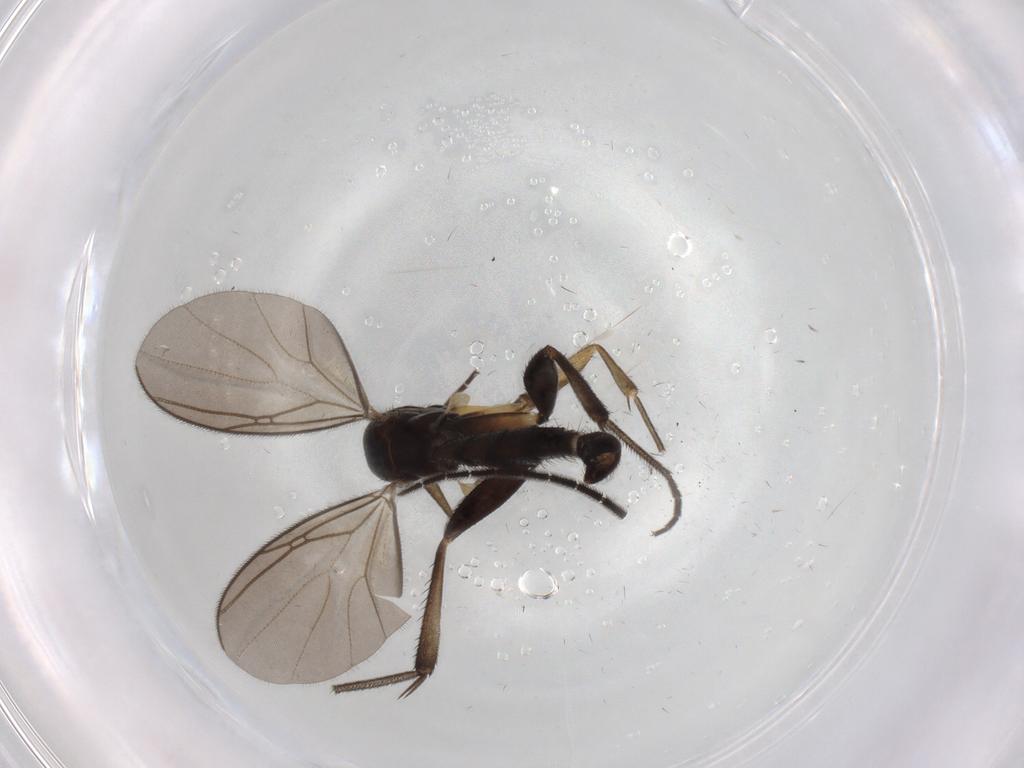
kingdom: Animalia
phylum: Arthropoda
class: Insecta
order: Diptera
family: Mycetophilidae
